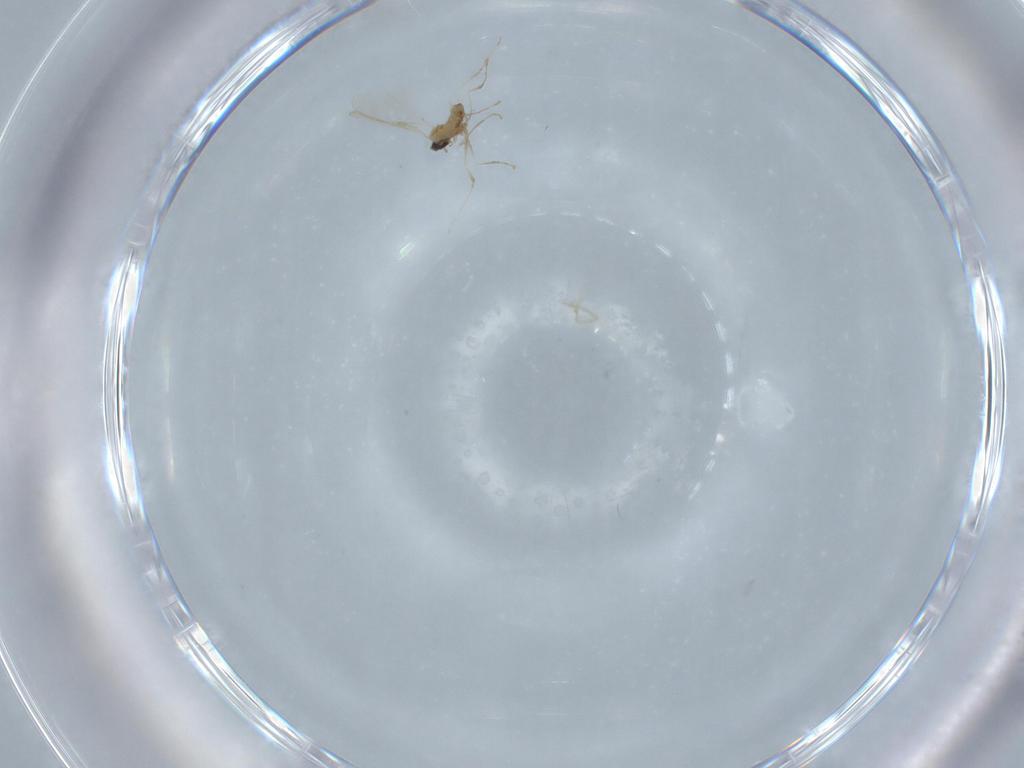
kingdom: Animalia
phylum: Arthropoda
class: Insecta
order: Diptera
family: Cecidomyiidae
